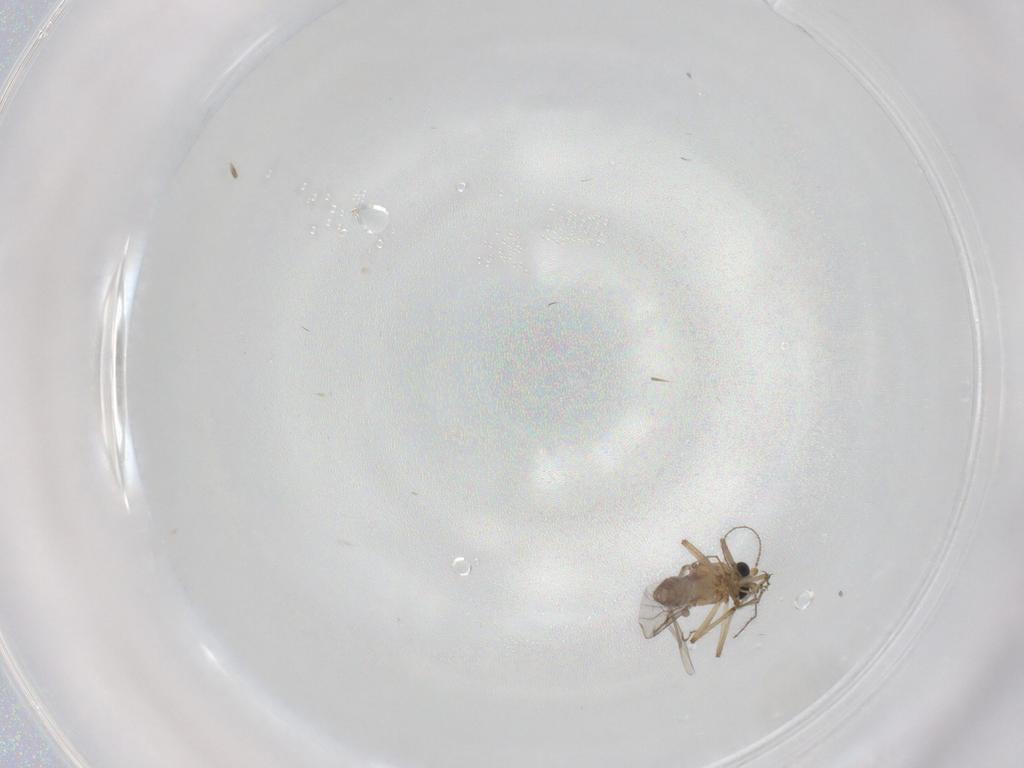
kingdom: Animalia
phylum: Arthropoda
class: Insecta
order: Diptera
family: Ceratopogonidae
